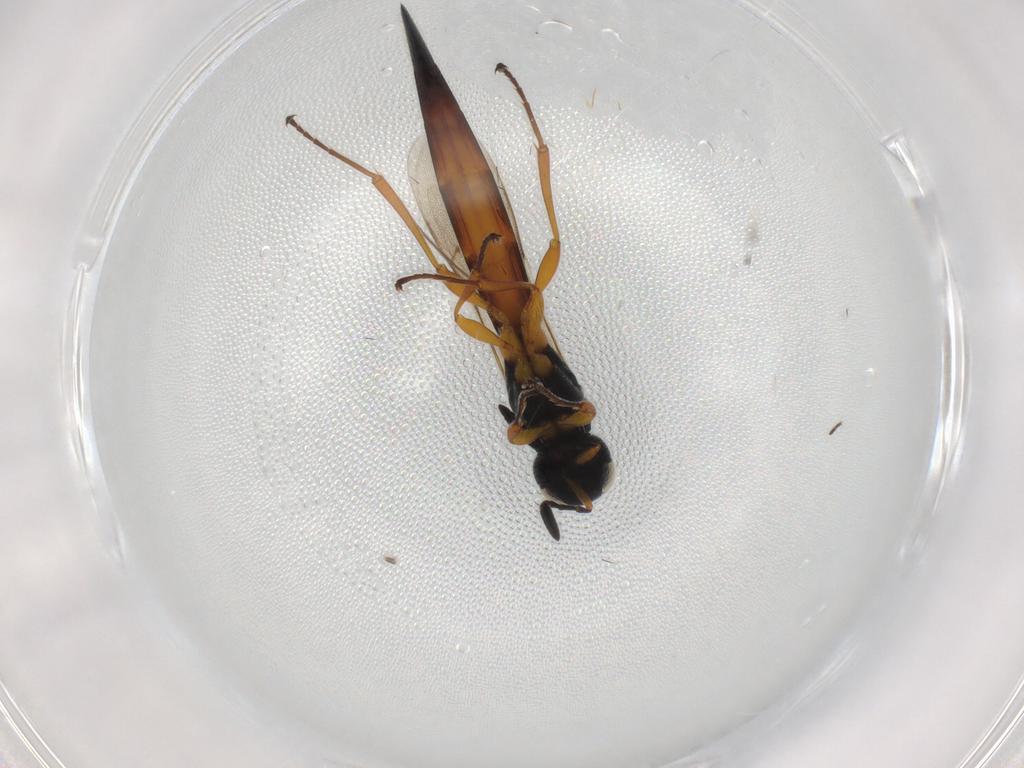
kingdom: Animalia
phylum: Arthropoda
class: Insecta
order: Hymenoptera
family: Scelionidae
